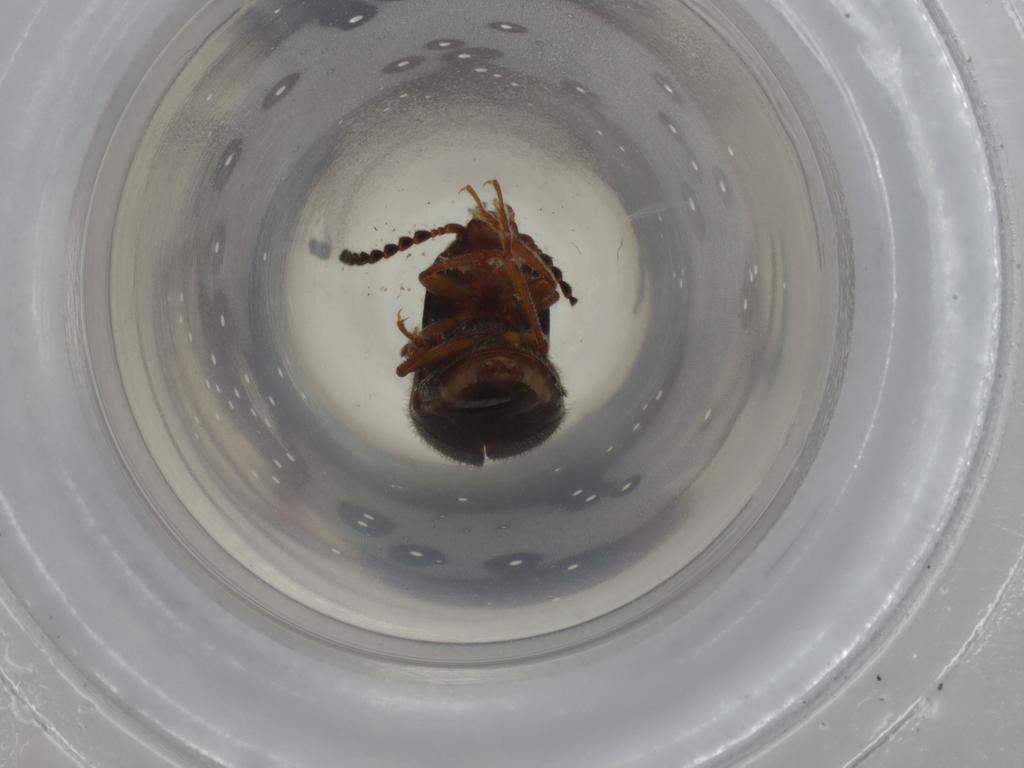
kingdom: Animalia
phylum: Arthropoda
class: Insecta
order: Coleoptera
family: Elateridae
